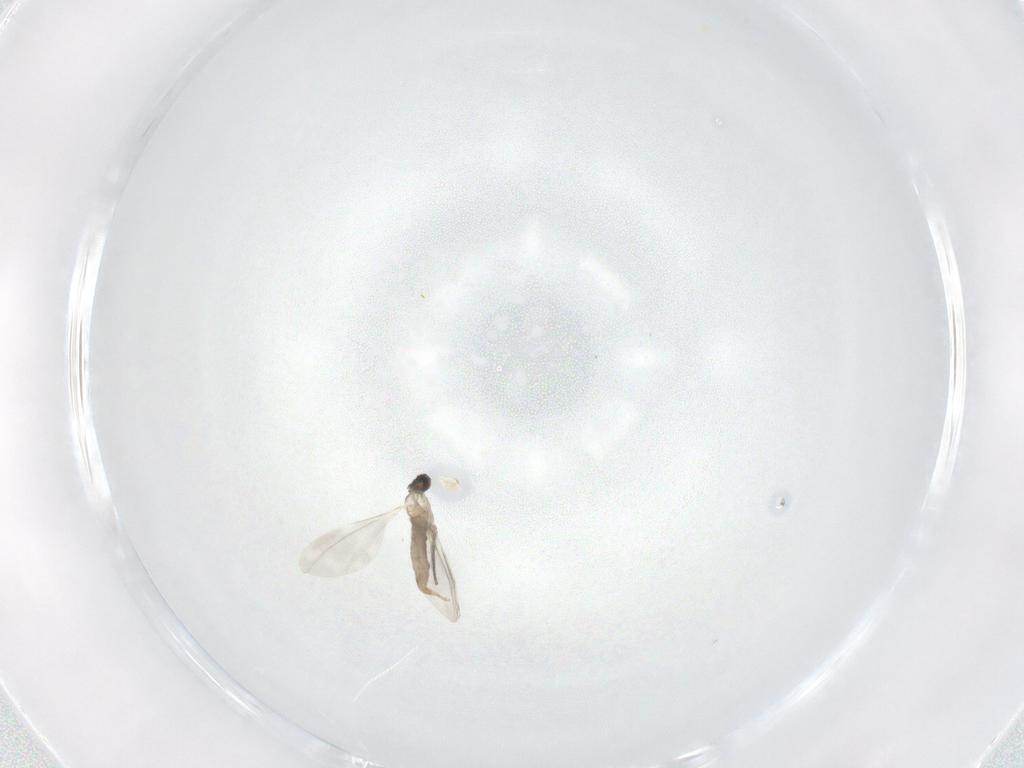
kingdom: Animalia
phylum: Arthropoda
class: Insecta
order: Diptera
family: Cecidomyiidae
